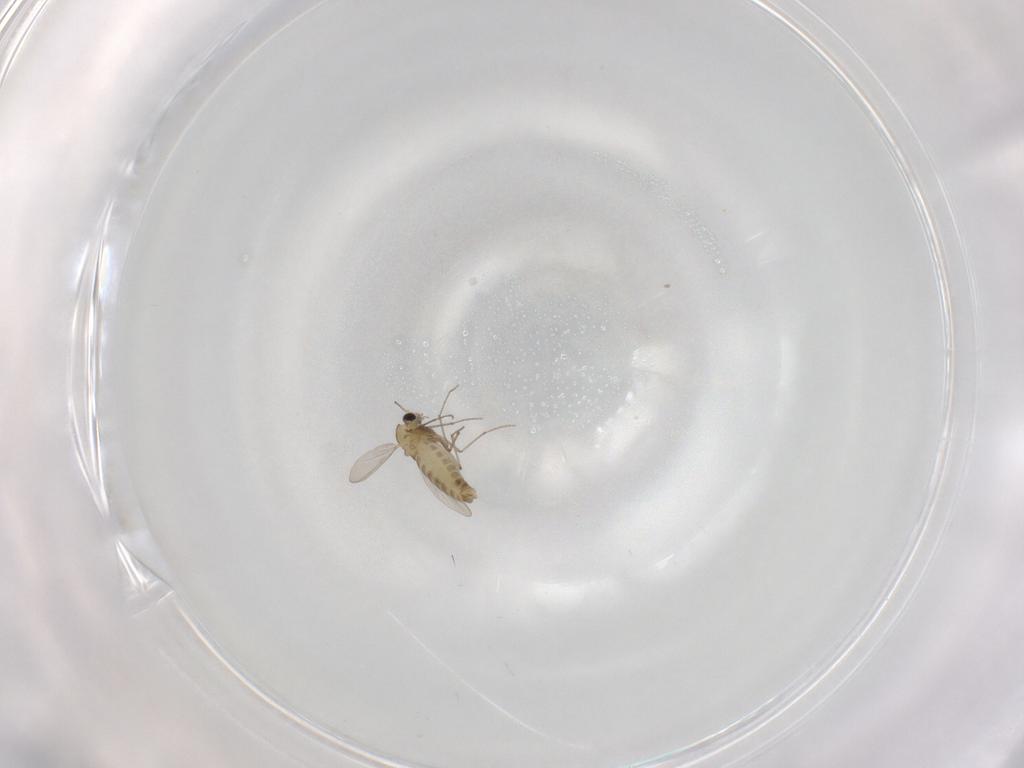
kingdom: Animalia
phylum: Arthropoda
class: Insecta
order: Diptera
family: Chironomidae
